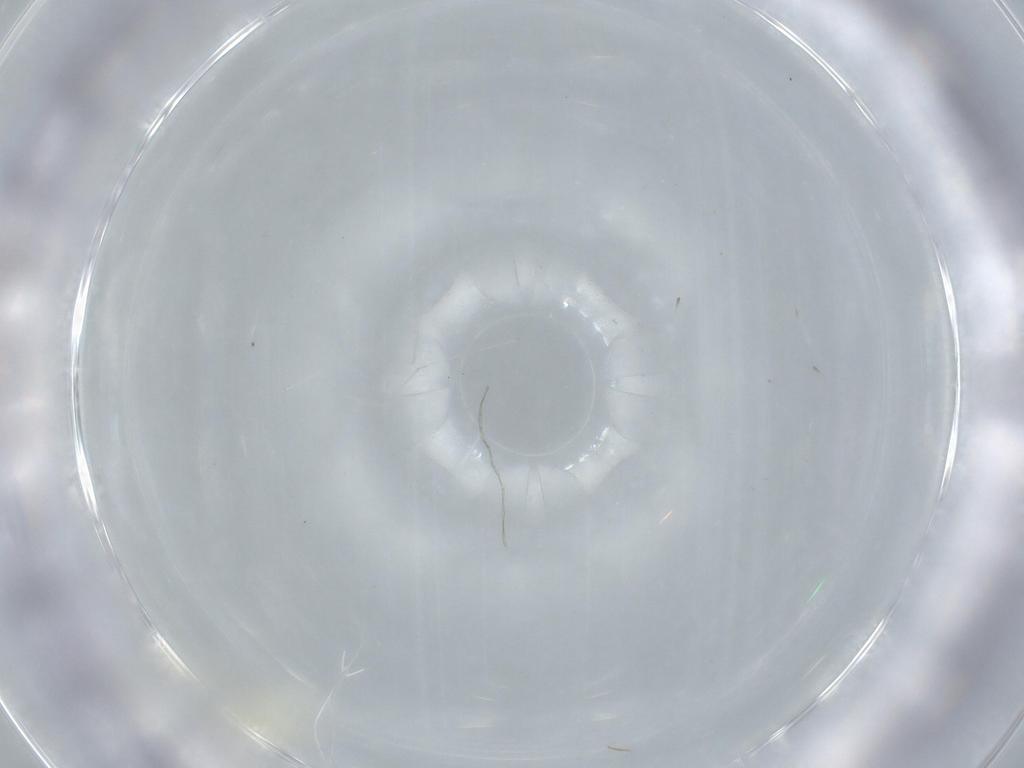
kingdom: Animalia
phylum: Arthropoda
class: Insecta
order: Diptera
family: Cecidomyiidae
